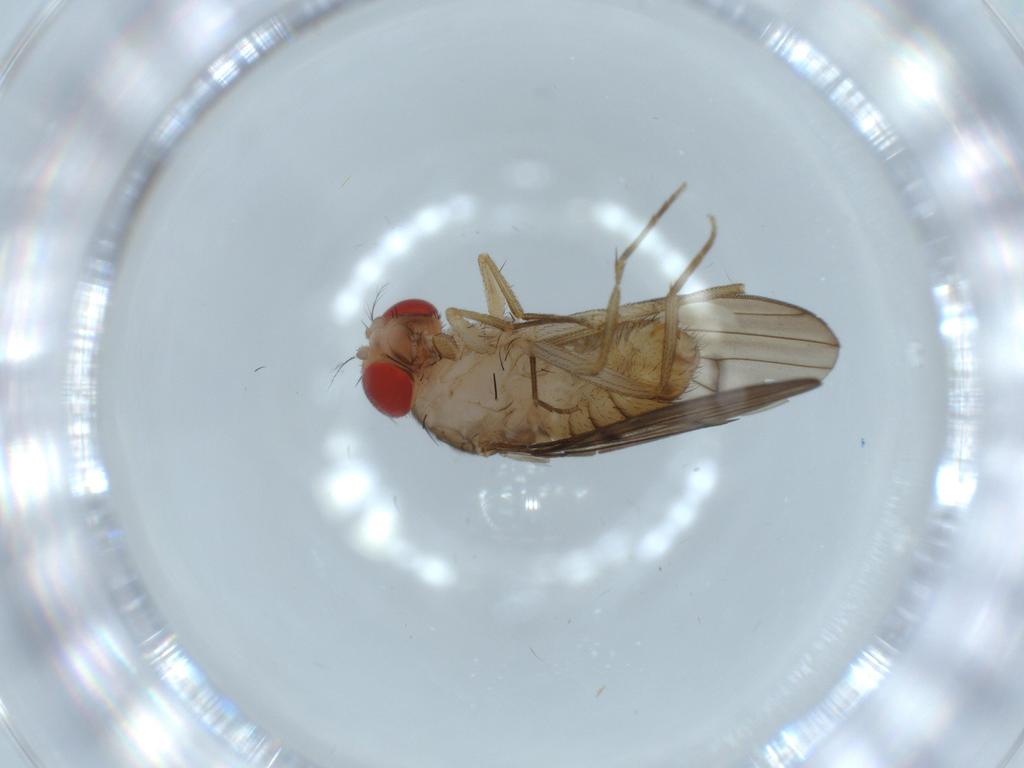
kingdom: Animalia
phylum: Arthropoda
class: Insecta
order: Diptera
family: Drosophilidae
